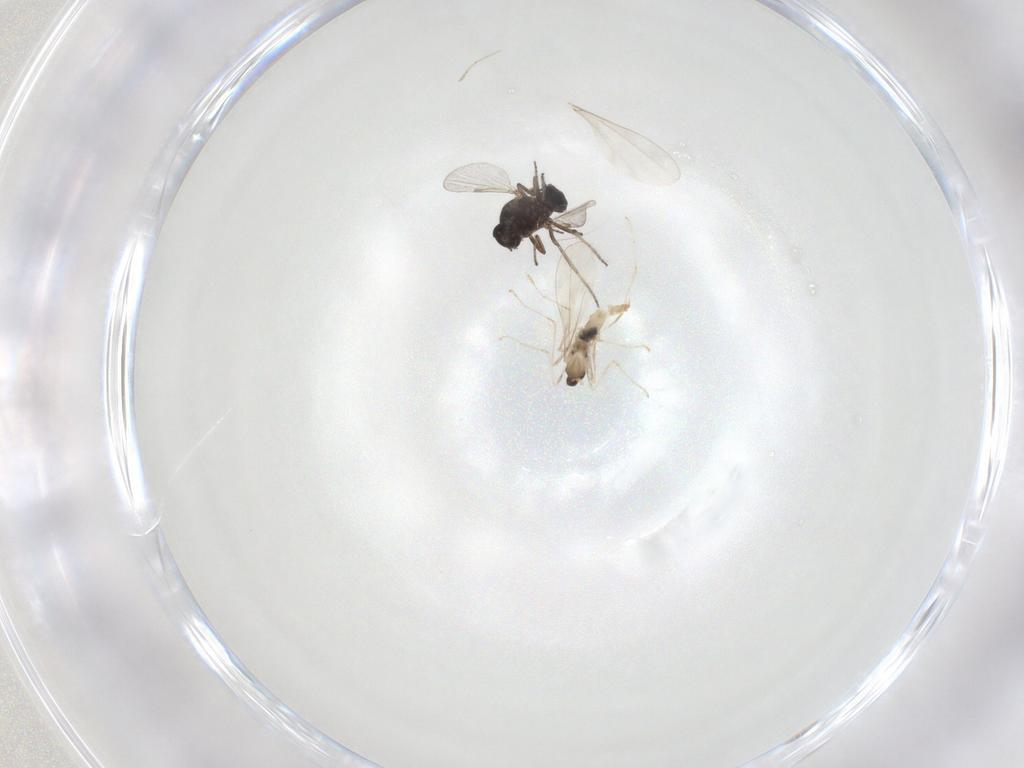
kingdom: Animalia
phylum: Arthropoda
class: Insecta
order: Diptera
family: Ceratopogonidae
